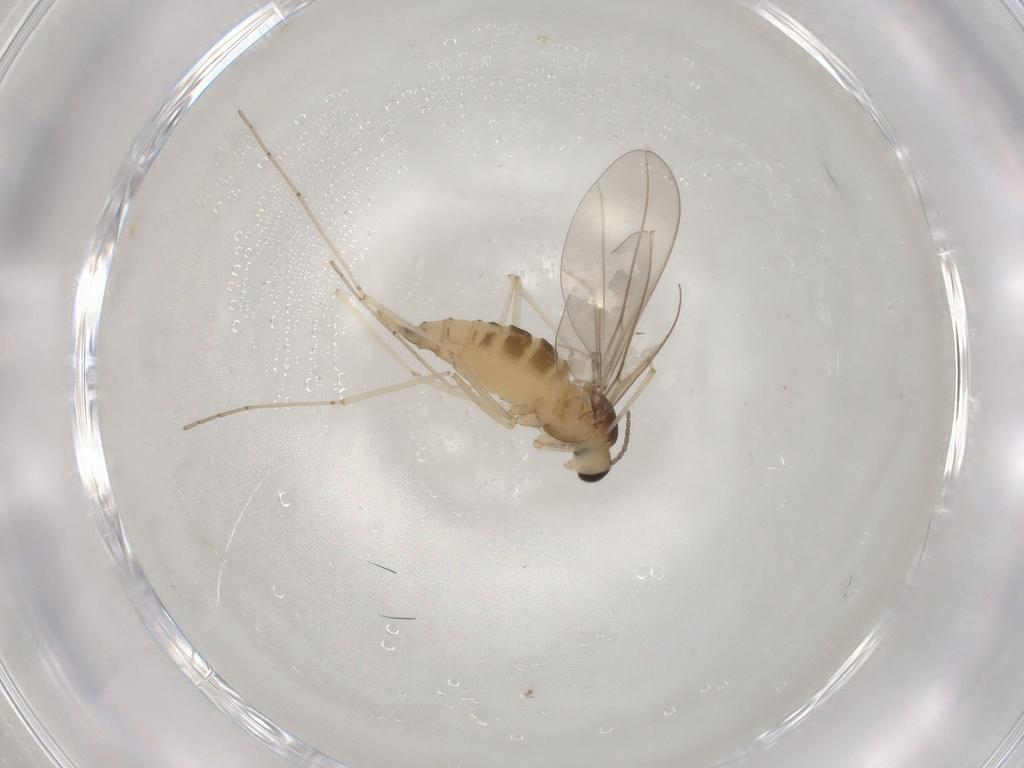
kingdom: Animalia
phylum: Arthropoda
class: Insecta
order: Diptera
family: Cecidomyiidae
